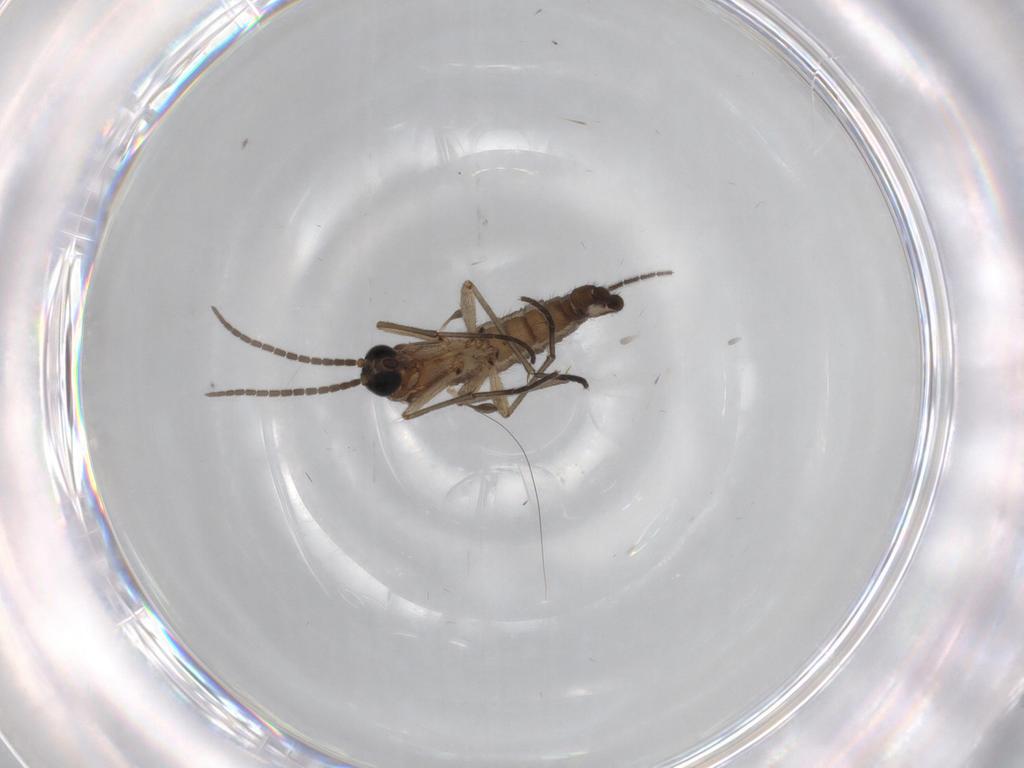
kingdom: Animalia
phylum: Arthropoda
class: Insecta
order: Diptera
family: Sciaridae
